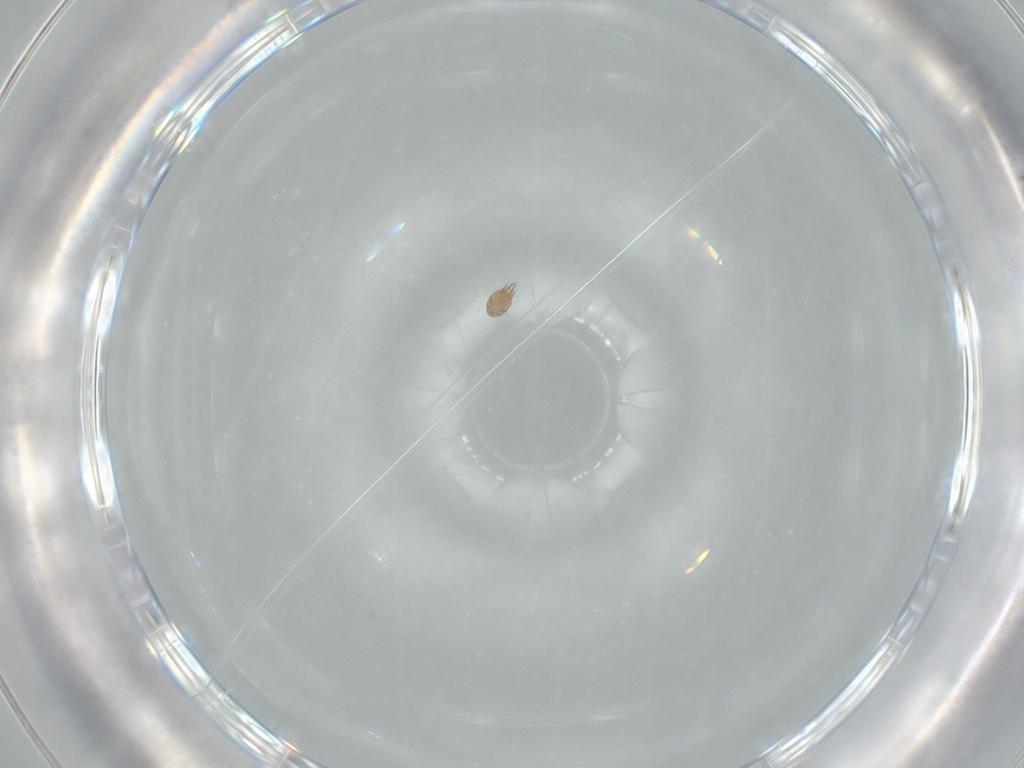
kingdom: Animalia
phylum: Arthropoda
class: Arachnida
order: Trombidiformes
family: Anystidae
